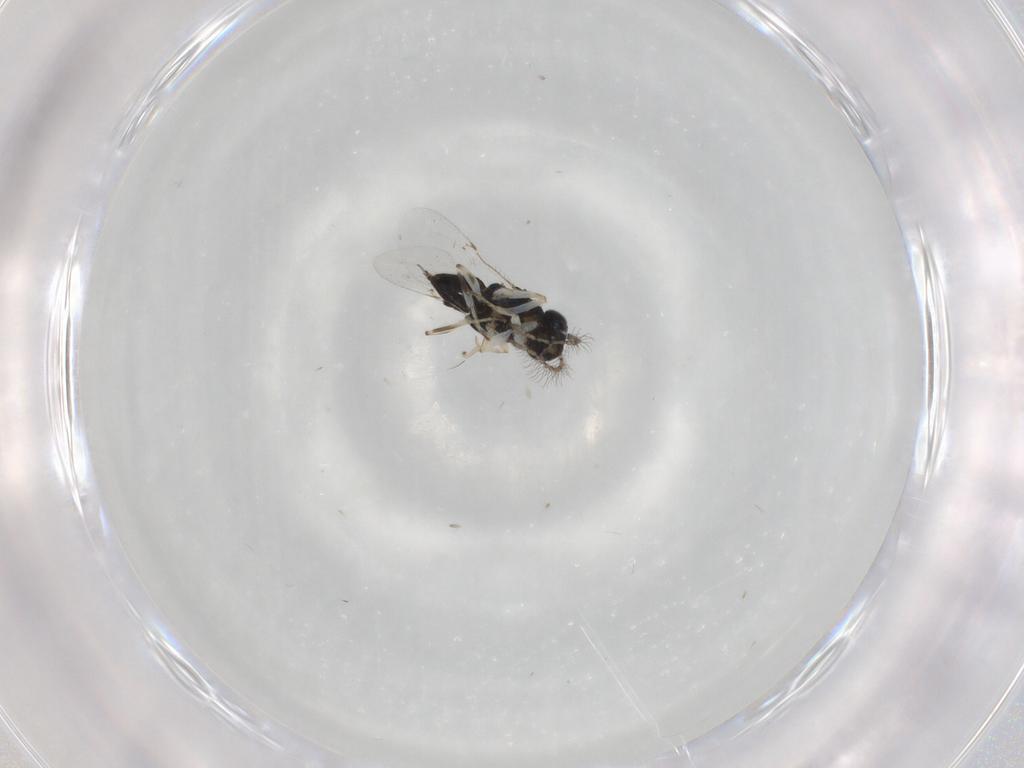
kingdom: Animalia
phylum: Arthropoda
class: Insecta
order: Hymenoptera
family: Encyrtidae
